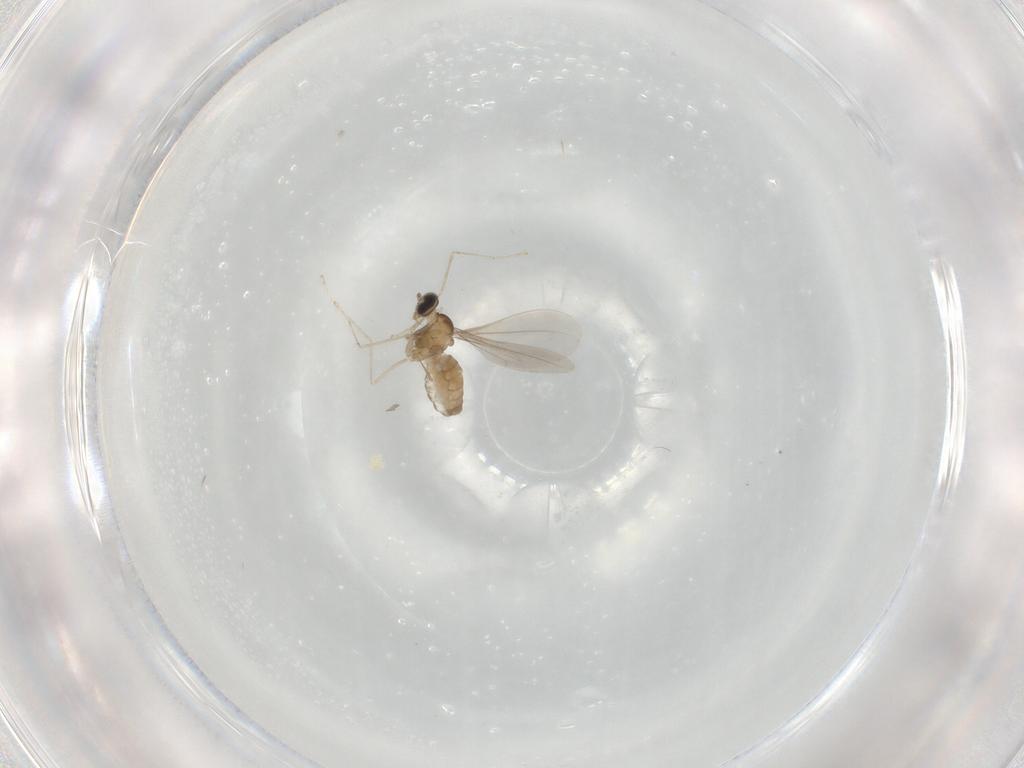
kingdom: Animalia
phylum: Arthropoda
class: Insecta
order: Diptera
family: Cecidomyiidae
